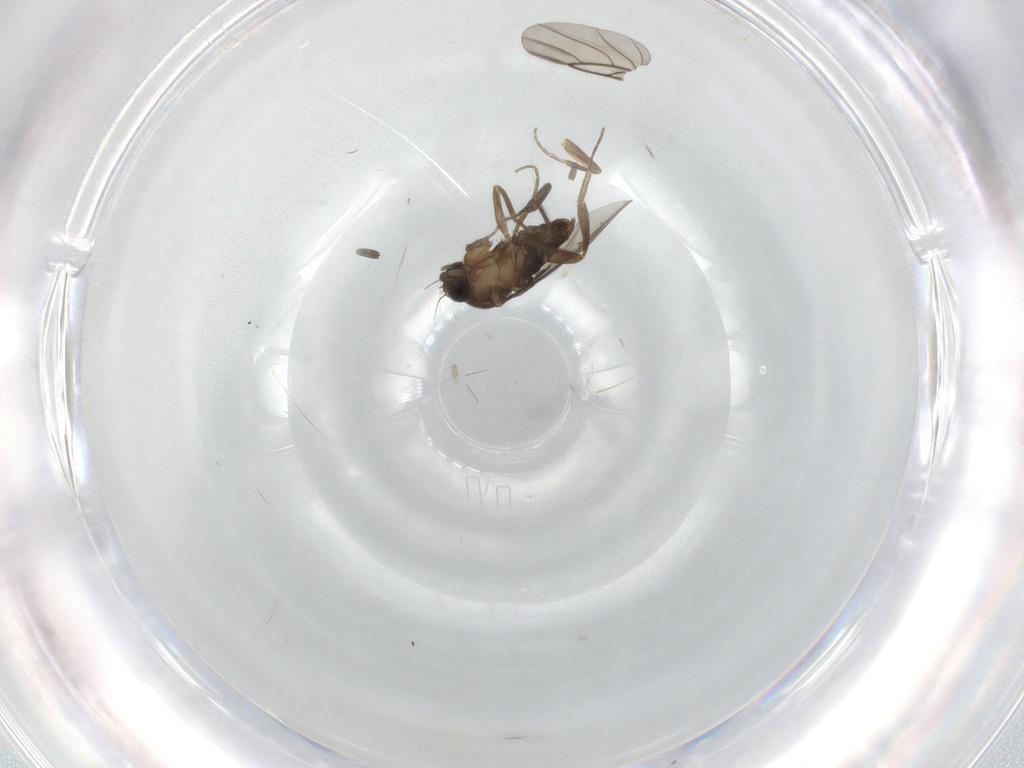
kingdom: Animalia
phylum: Arthropoda
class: Insecta
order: Diptera
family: Phoridae
